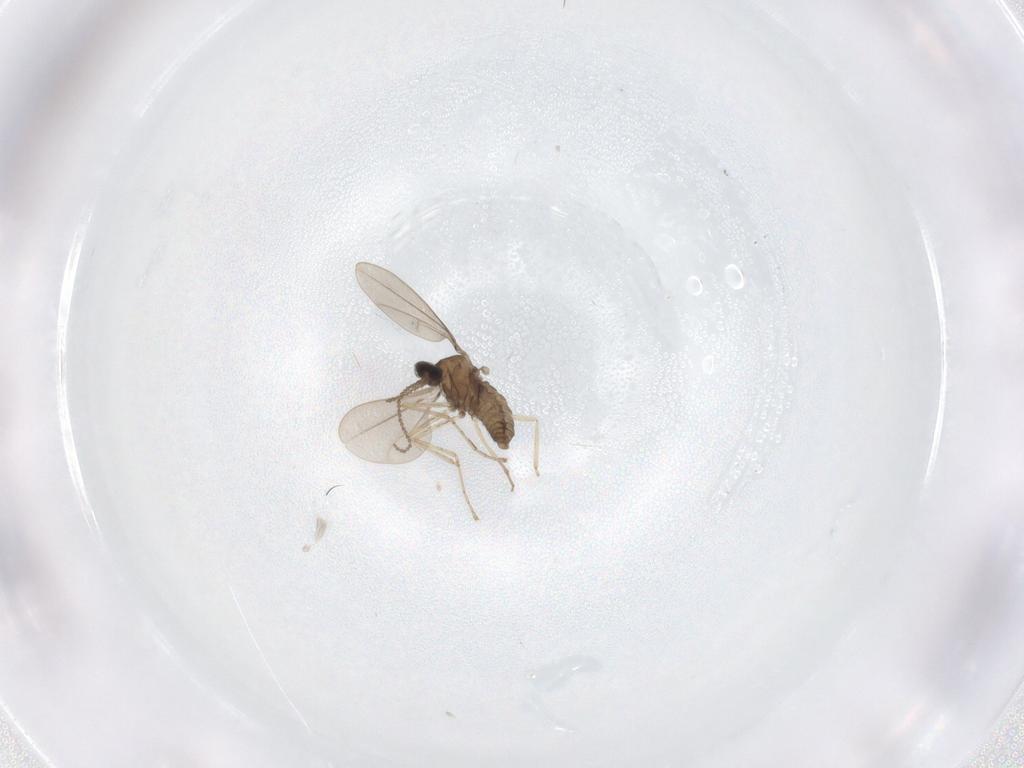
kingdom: Animalia
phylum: Arthropoda
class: Insecta
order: Diptera
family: Cecidomyiidae
